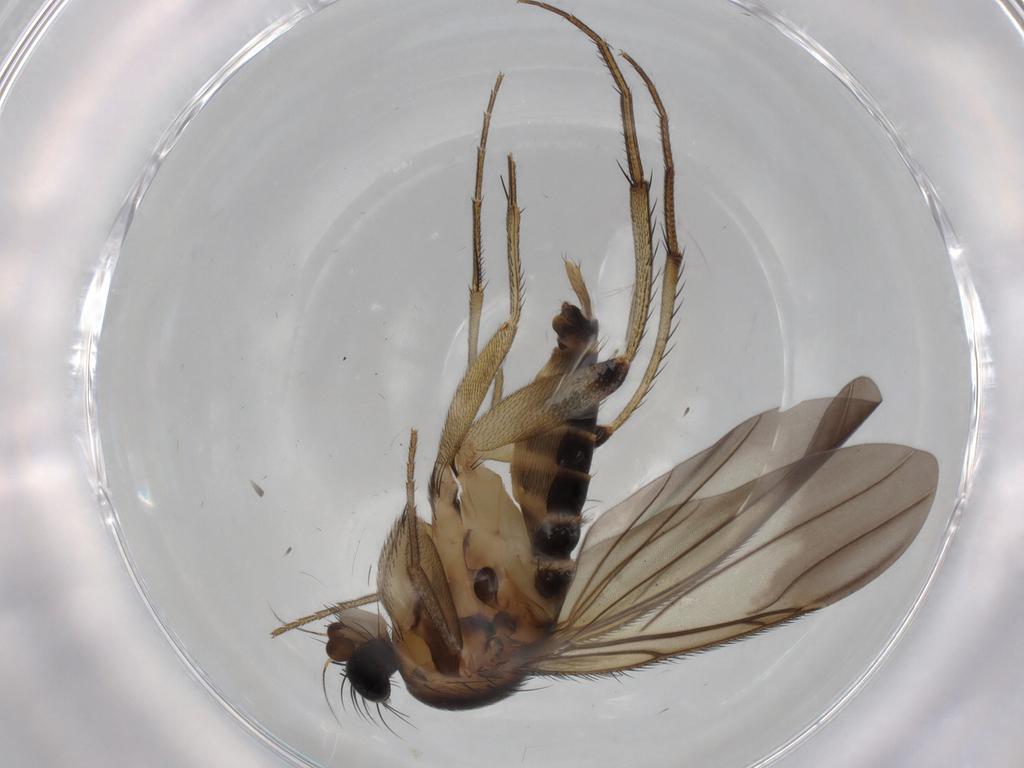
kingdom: Animalia
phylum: Arthropoda
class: Insecta
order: Diptera
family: Phoridae
